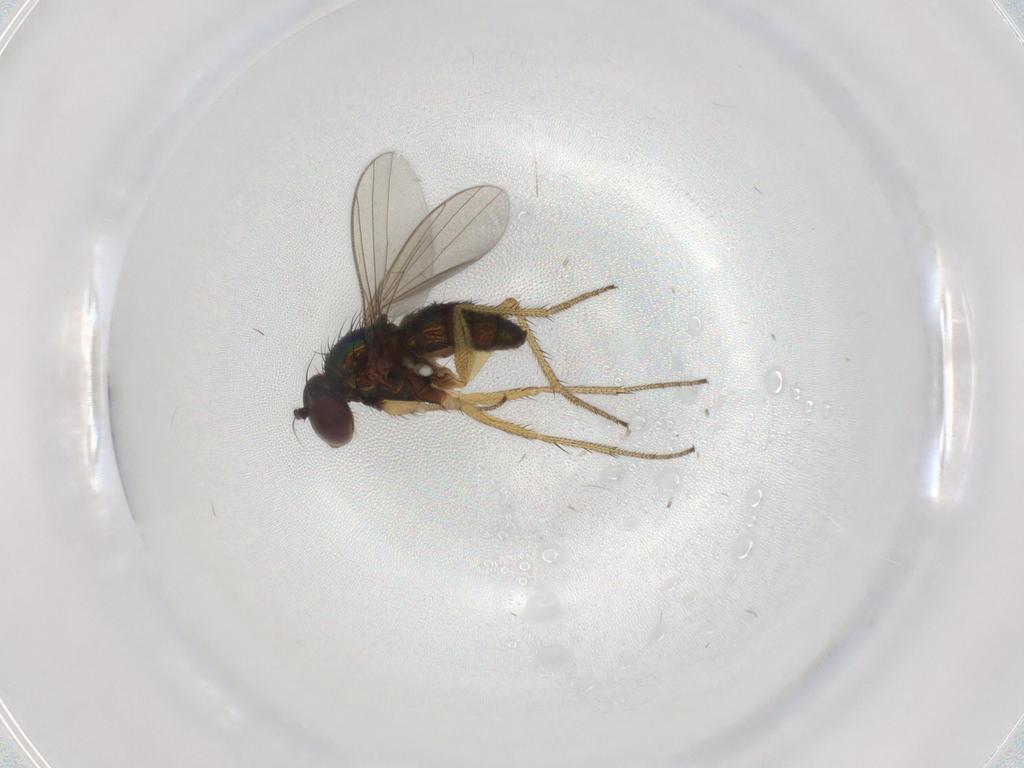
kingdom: Animalia
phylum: Arthropoda
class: Insecta
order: Diptera
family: Dolichopodidae
